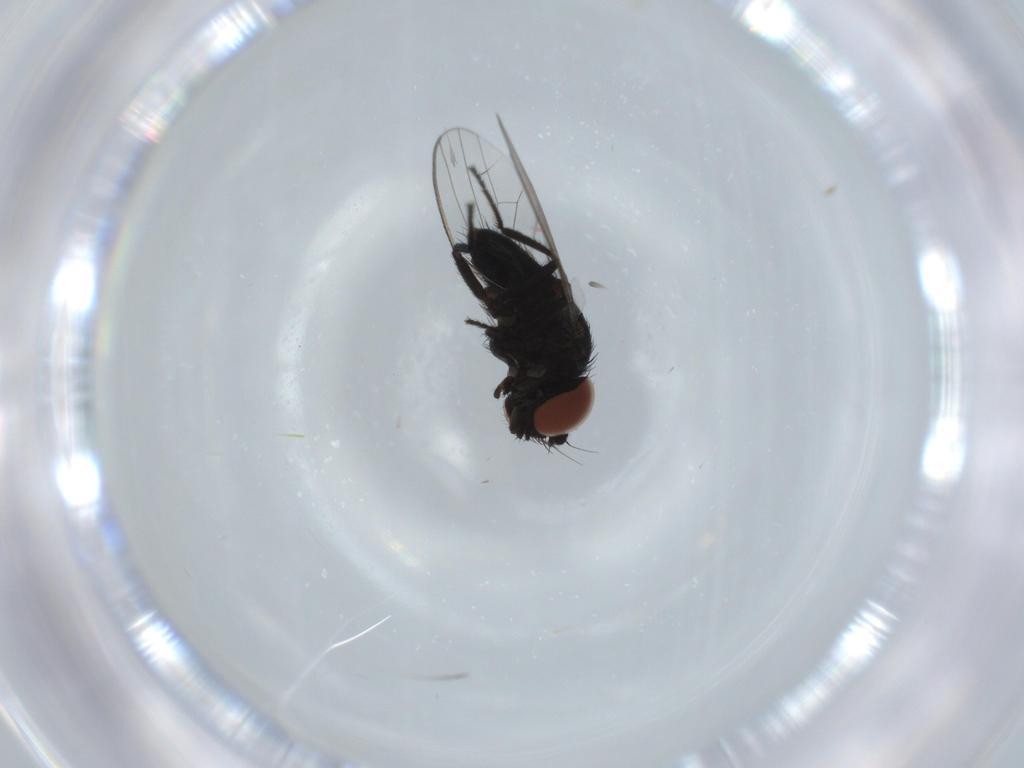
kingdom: Animalia
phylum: Arthropoda
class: Insecta
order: Diptera
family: Milichiidae
